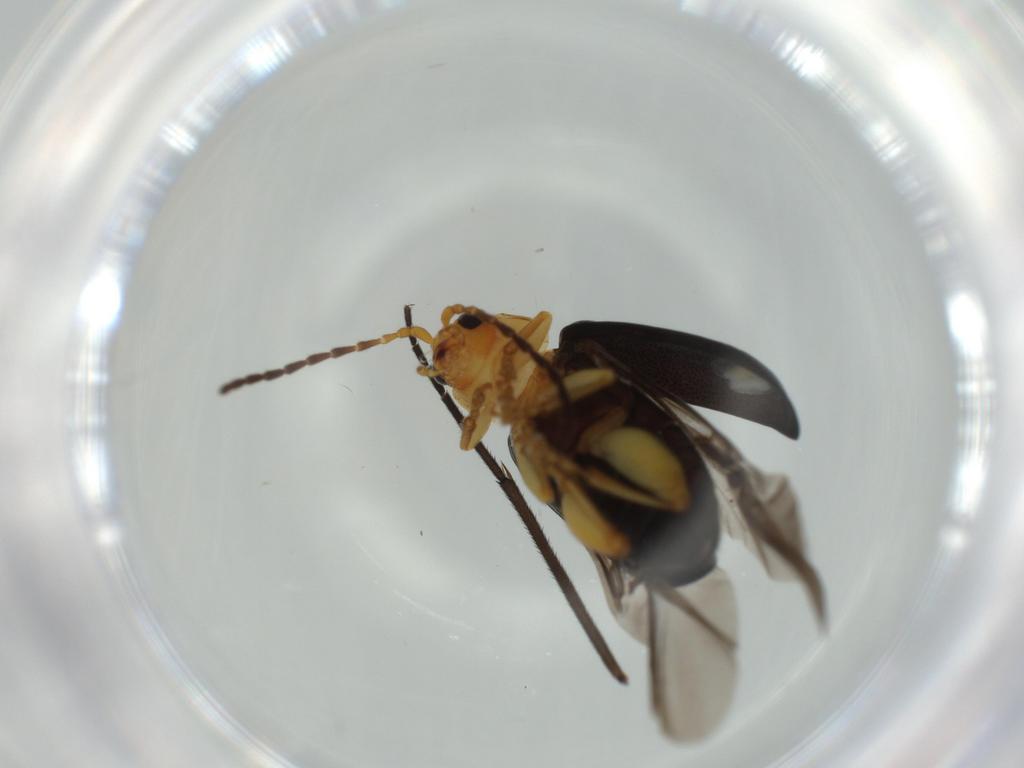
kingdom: Animalia
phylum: Arthropoda
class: Insecta
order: Coleoptera
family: Chrysomelidae
